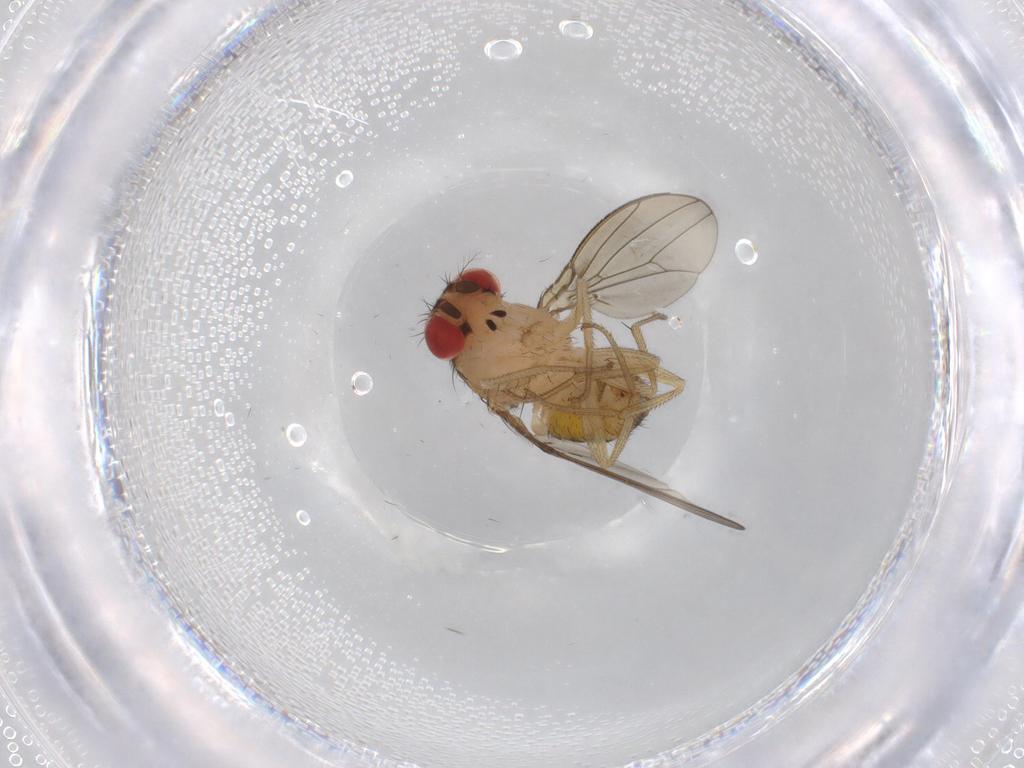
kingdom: Animalia
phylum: Arthropoda
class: Insecta
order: Diptera
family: Drosophilidae
